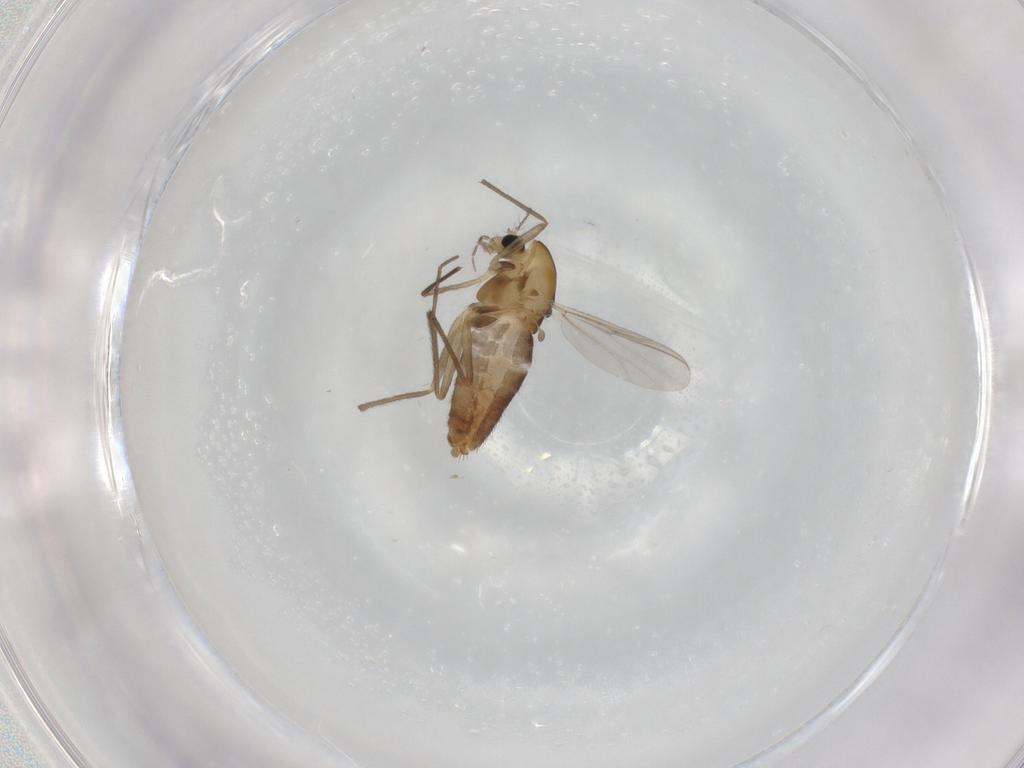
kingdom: Animalia
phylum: Arthropoda
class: Insecta
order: Diptera
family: Chironomidae
